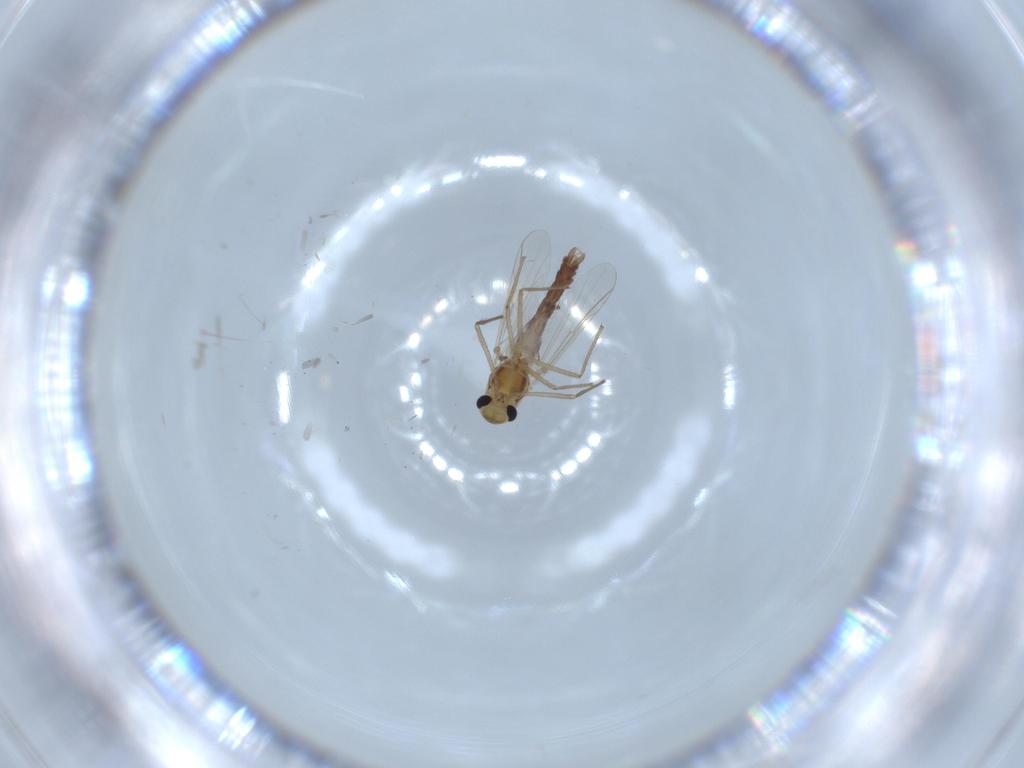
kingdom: Animalia
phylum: Arthropoda
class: Insecta
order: Diptera
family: Chironomidae
